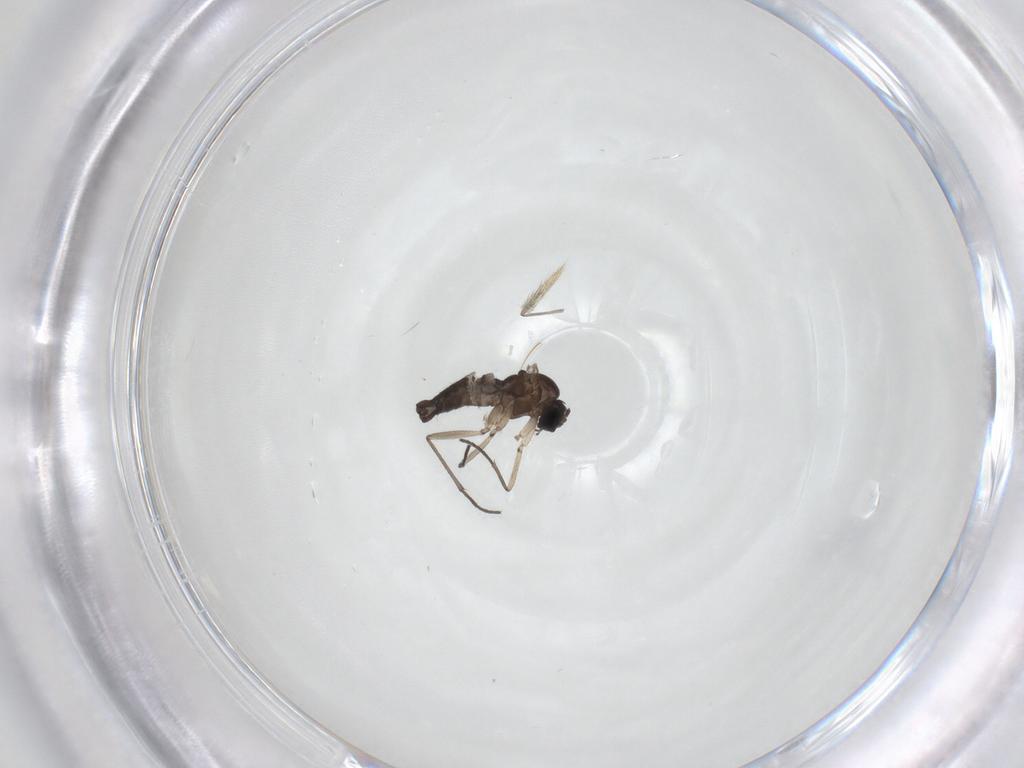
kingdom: Animalia
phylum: Arthropoda
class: Insecta
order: Diptera
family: Sciaridae
